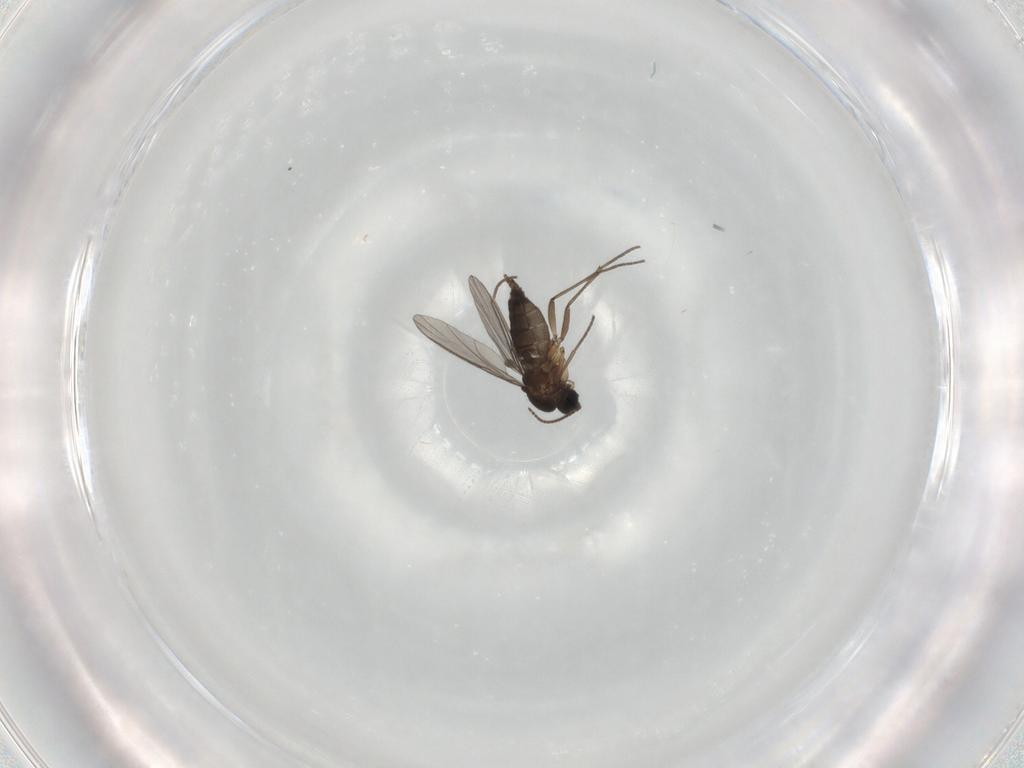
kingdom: Animalia
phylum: Arthropoda
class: Insecta
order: Diptera
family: Sciaridae
